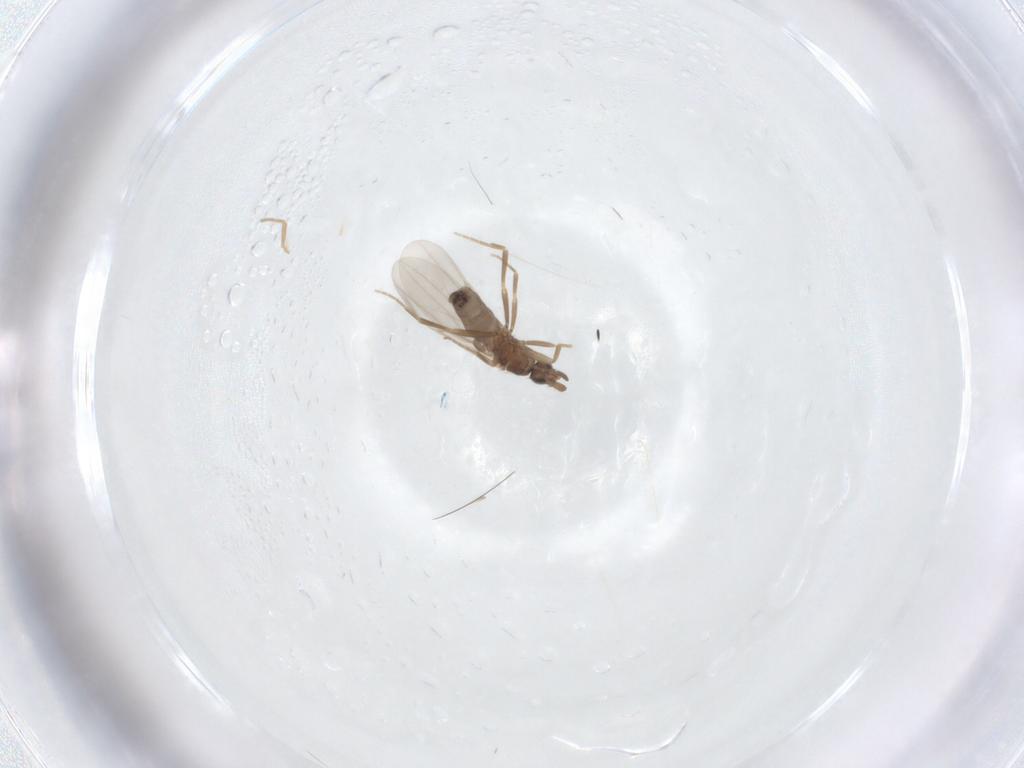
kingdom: Animalia
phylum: Arthropoda
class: Insecta
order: Diptera
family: Phoridae
